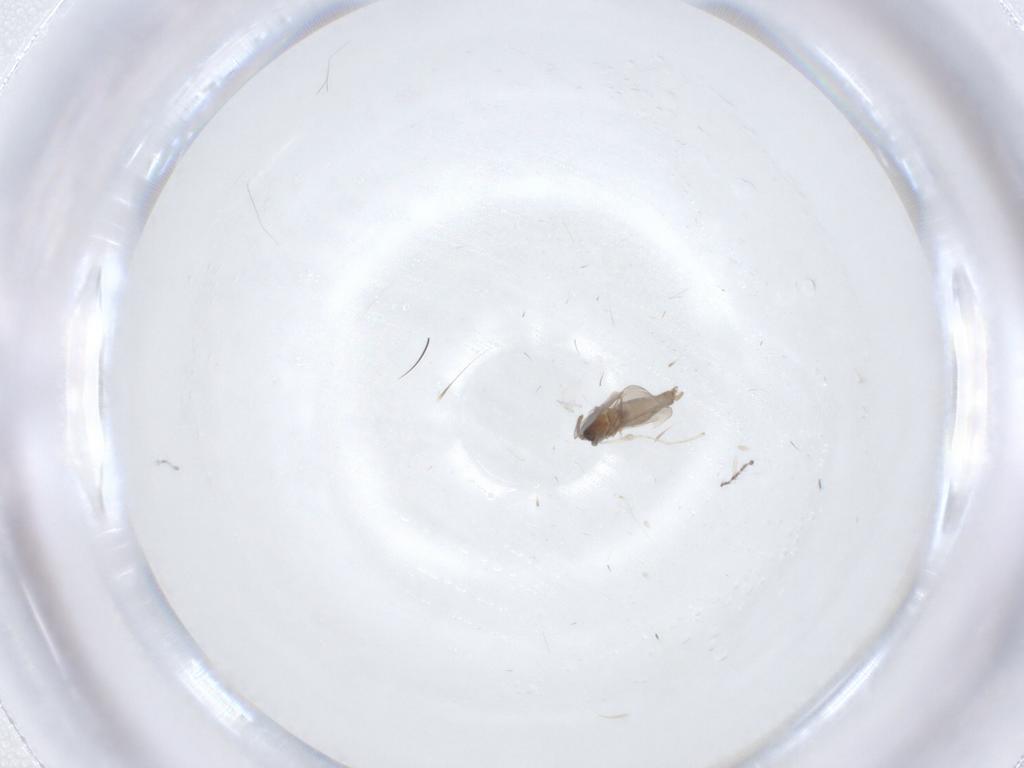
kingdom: Animalia
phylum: Arthropoda
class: Insecta
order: Diptera
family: Cecidomyiidae
